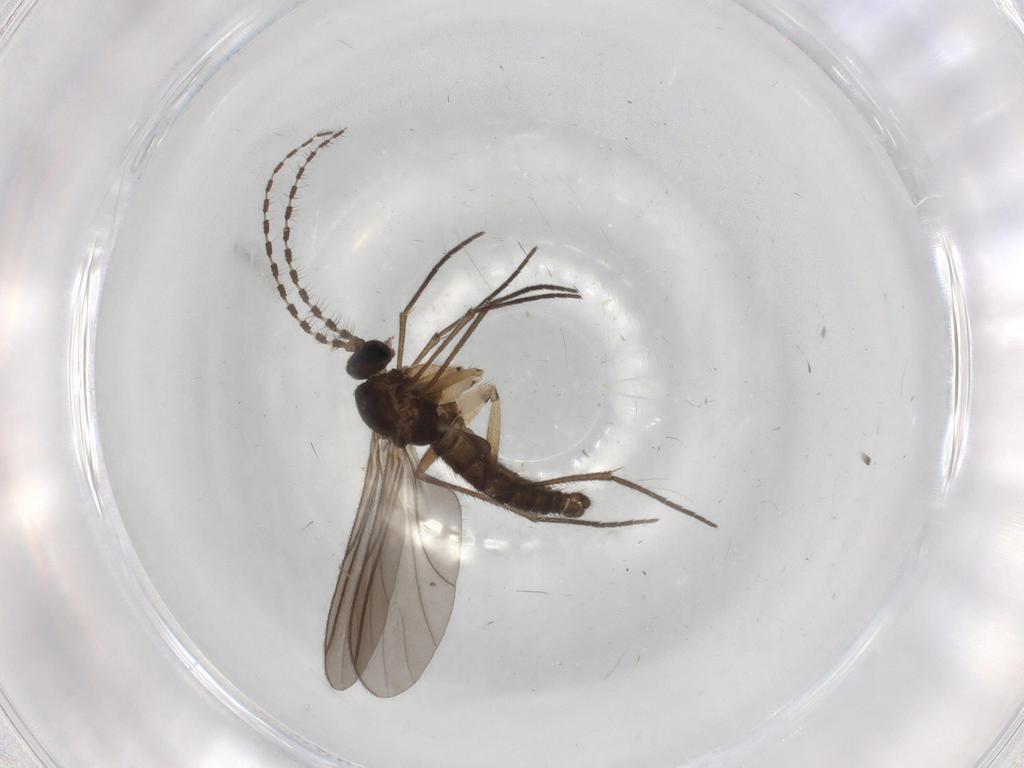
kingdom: Animalia
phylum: Arthropoda
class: Insecta
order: Diptera
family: Sciaridae
